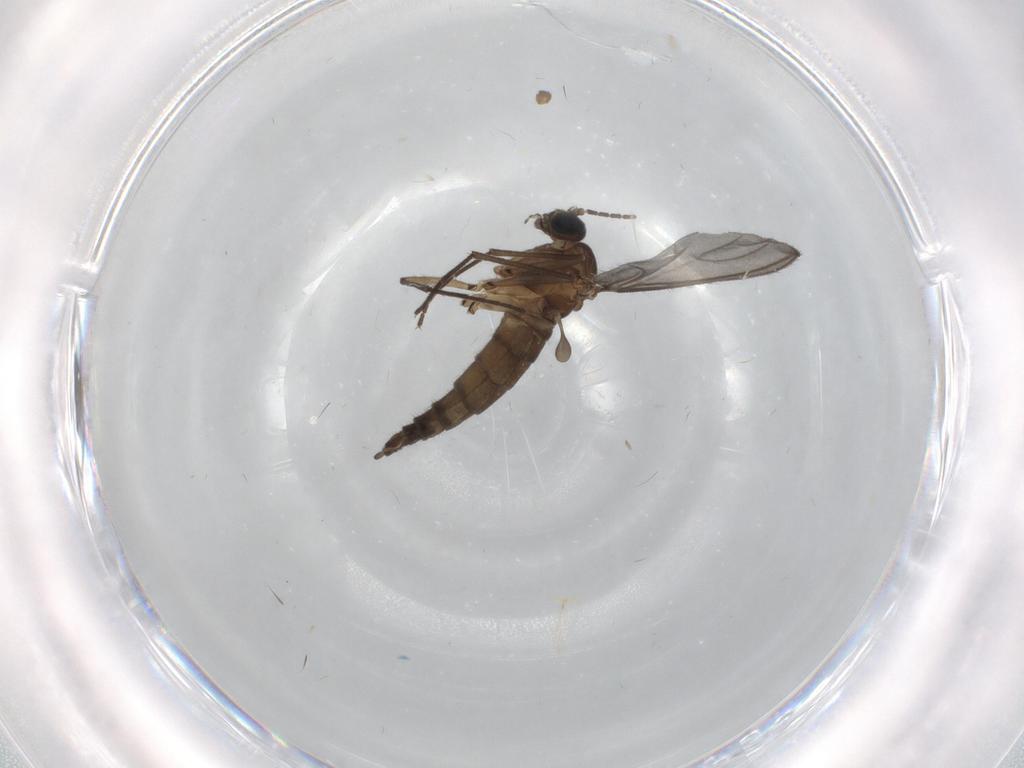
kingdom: Animalia
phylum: Arthropoda
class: Insecta
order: Diptera
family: Sciaridae
